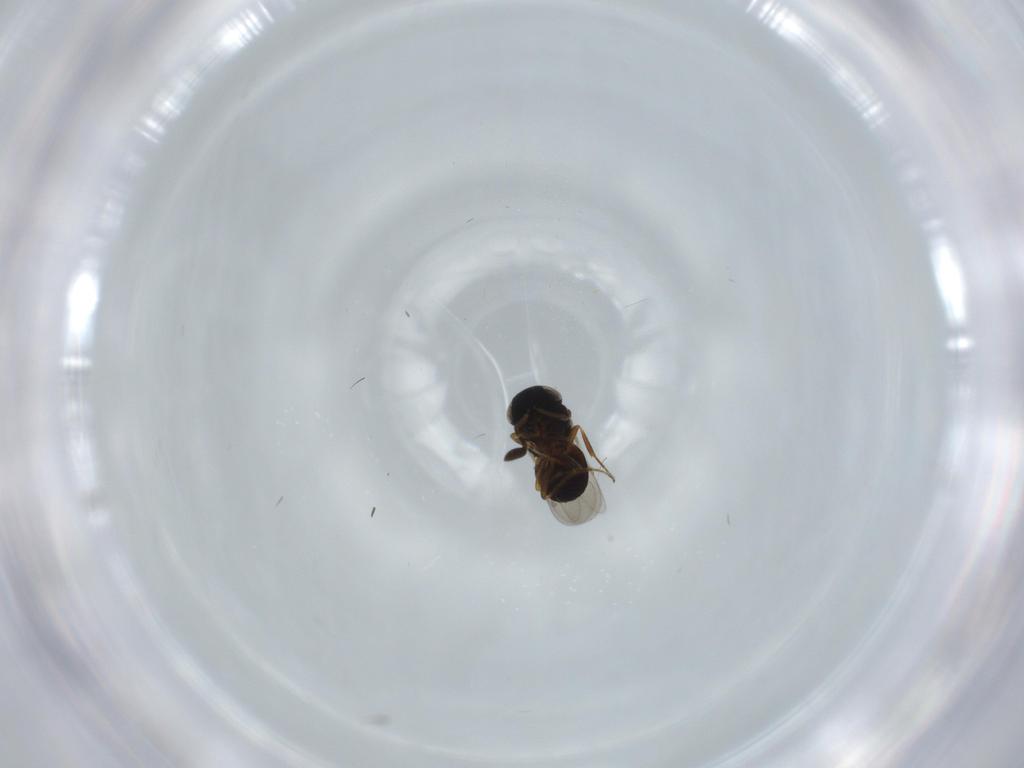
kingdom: Animalia
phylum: Arthropoda
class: Insecta
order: Hymenoptera
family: Scelionidae
